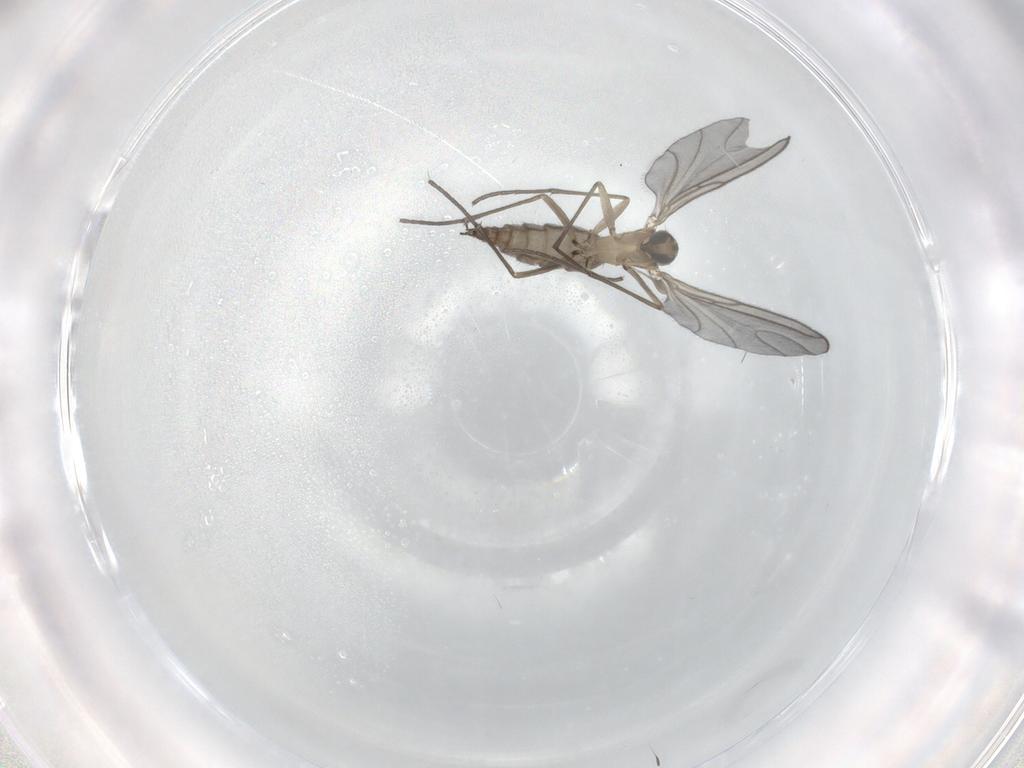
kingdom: Animalia
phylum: Arthropoda
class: Insecta
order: Diptera
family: Sciaridae
